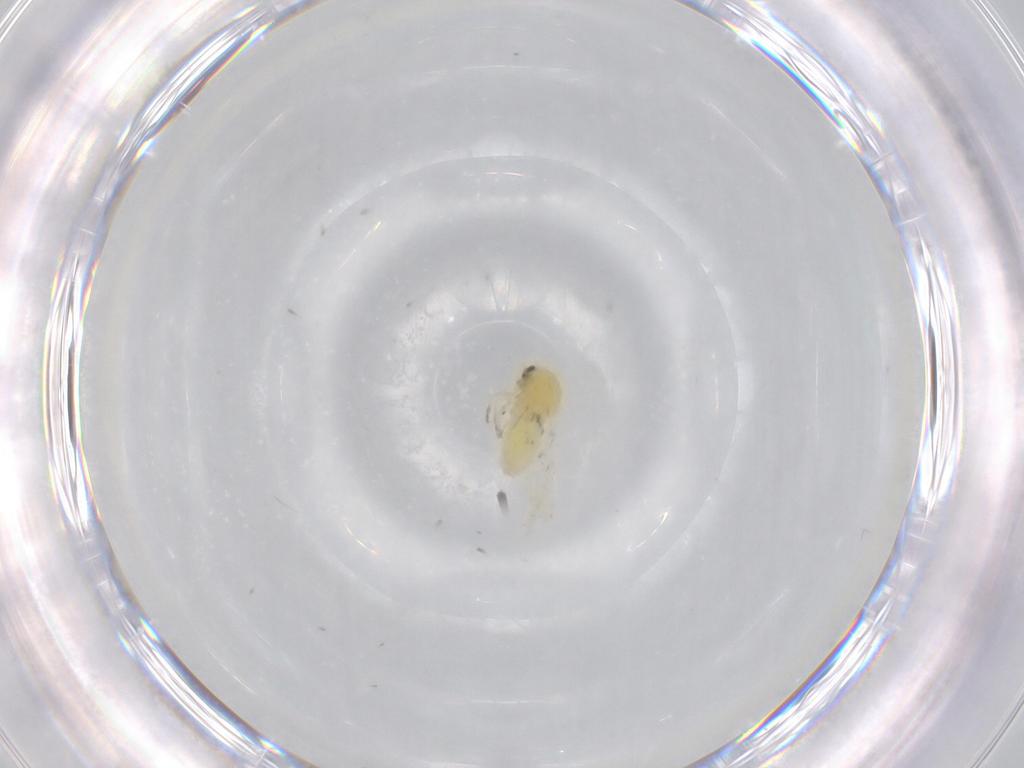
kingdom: Animalia
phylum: Arthropoda
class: Insecta
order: Hemiptera
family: Aleyrodidae
